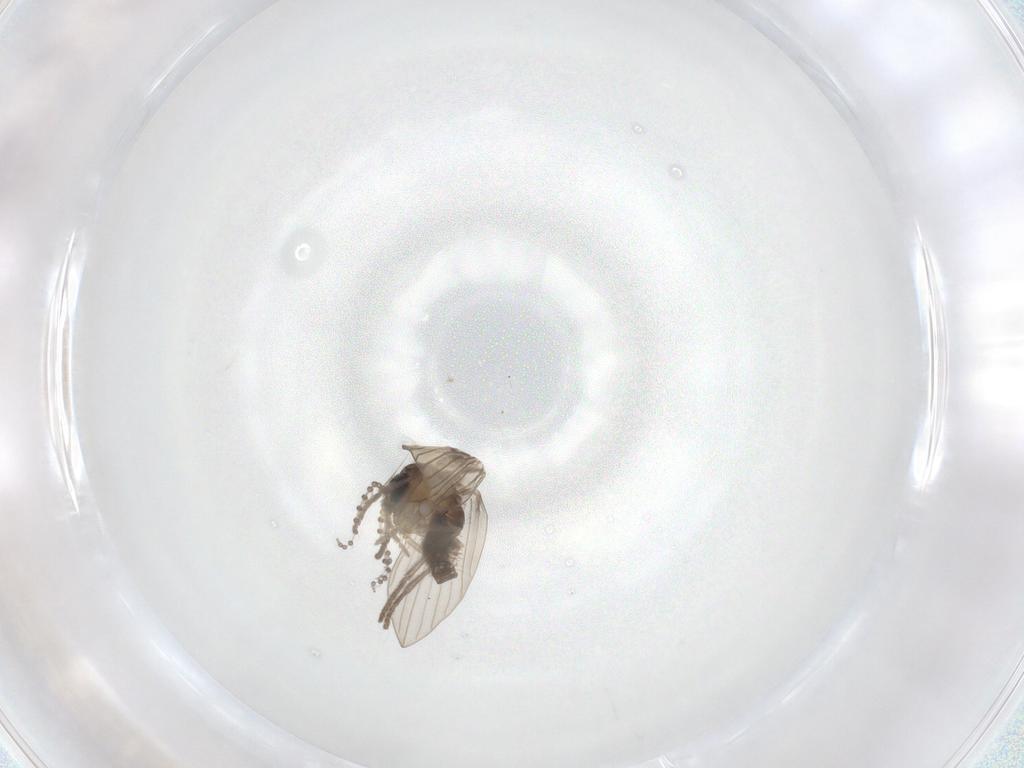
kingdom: Animalia
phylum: Arthropoda
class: Insecta
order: Diptera
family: Psychodidae
